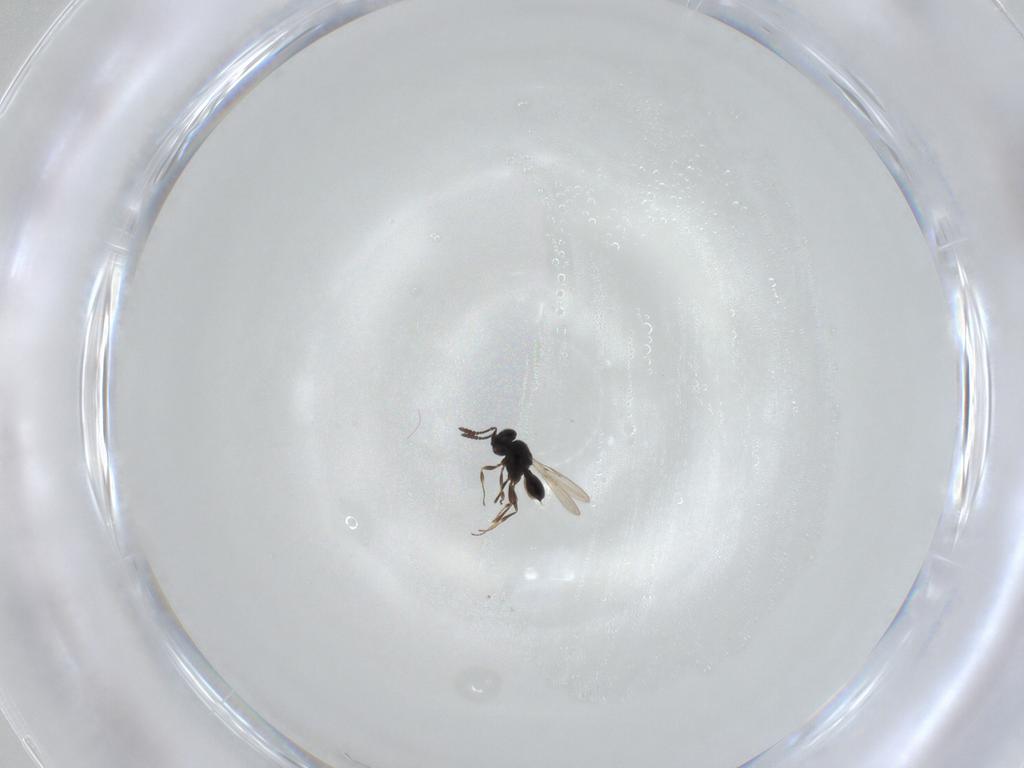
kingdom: Animalia
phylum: Arthropoda
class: Insecta
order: Hymenoptera
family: Scelionidae
